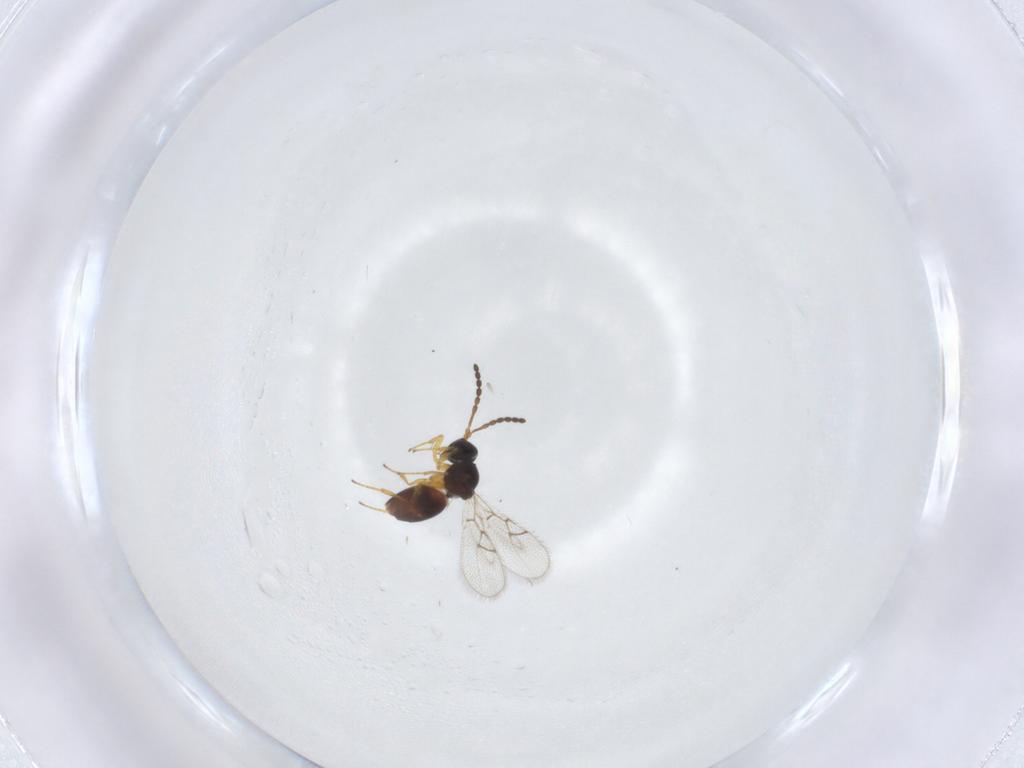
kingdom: Animalia
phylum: Arthropoda
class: Insecta
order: Hymenoptera
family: Figitidae
